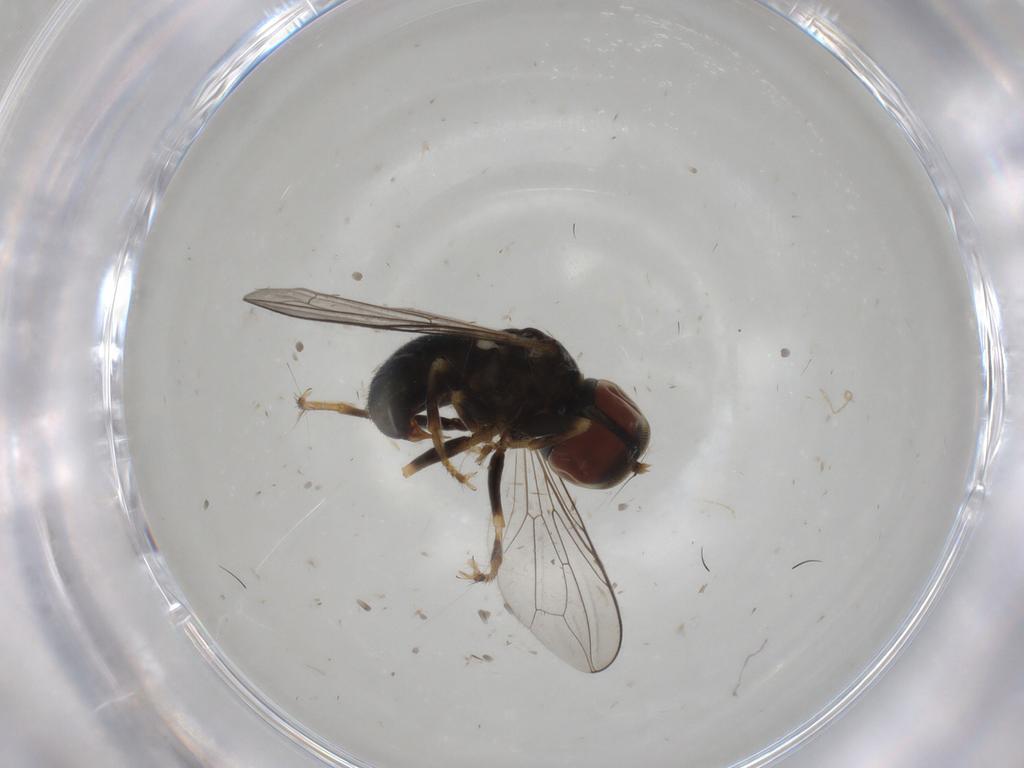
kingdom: Animalia
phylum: Arthropoda
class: Insecta
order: Diptera
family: Pipunculidae
